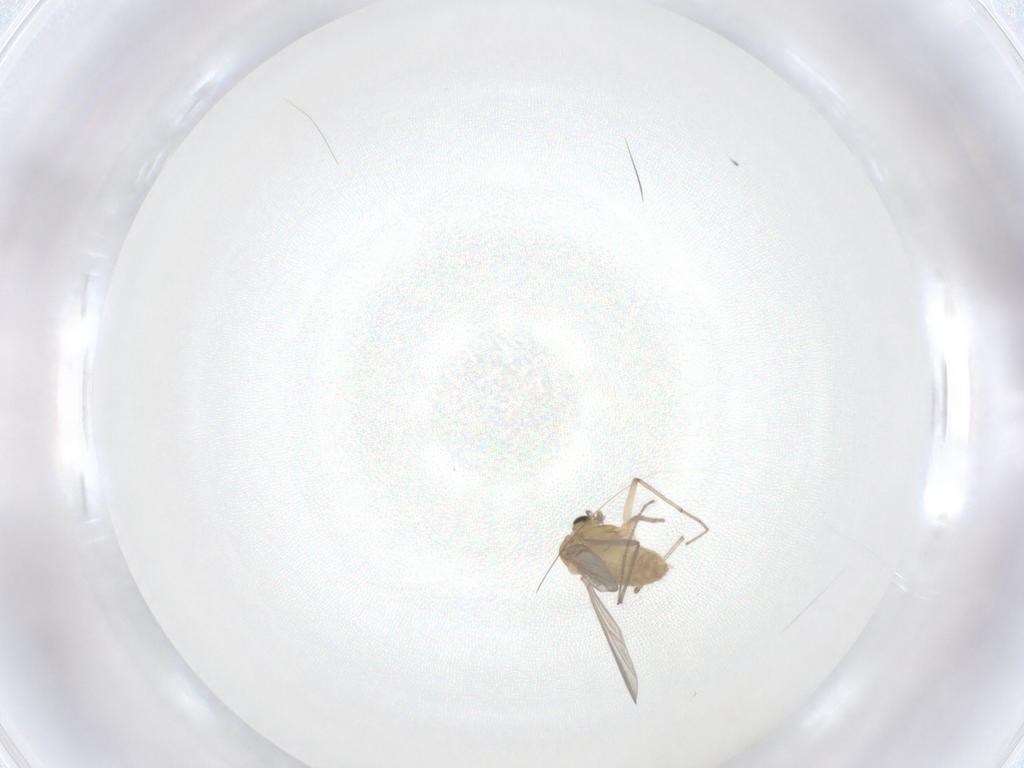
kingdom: Animalia
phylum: Arthropoda
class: Insecta
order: Diptera
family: Chironomidae
